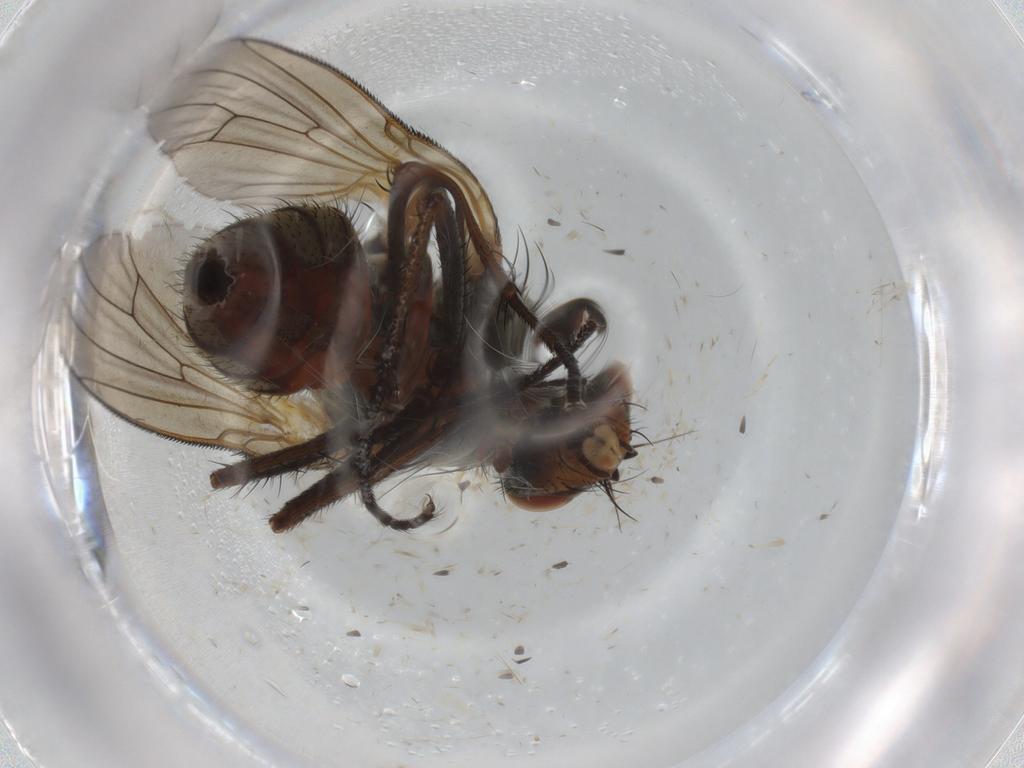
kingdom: Animalia
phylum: Arthropoda
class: Insecta
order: Diptera
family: Anthomyiidae
